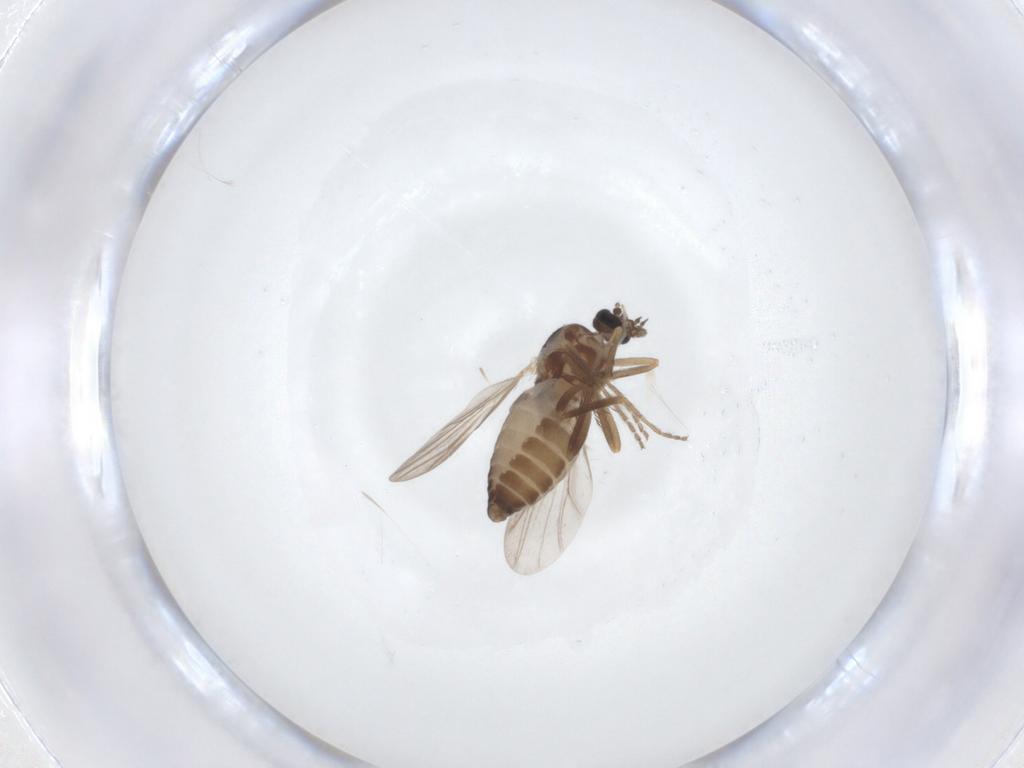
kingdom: Animalia
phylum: Arthropoda
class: Insecta
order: Diptera
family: Ceratopogonidae
